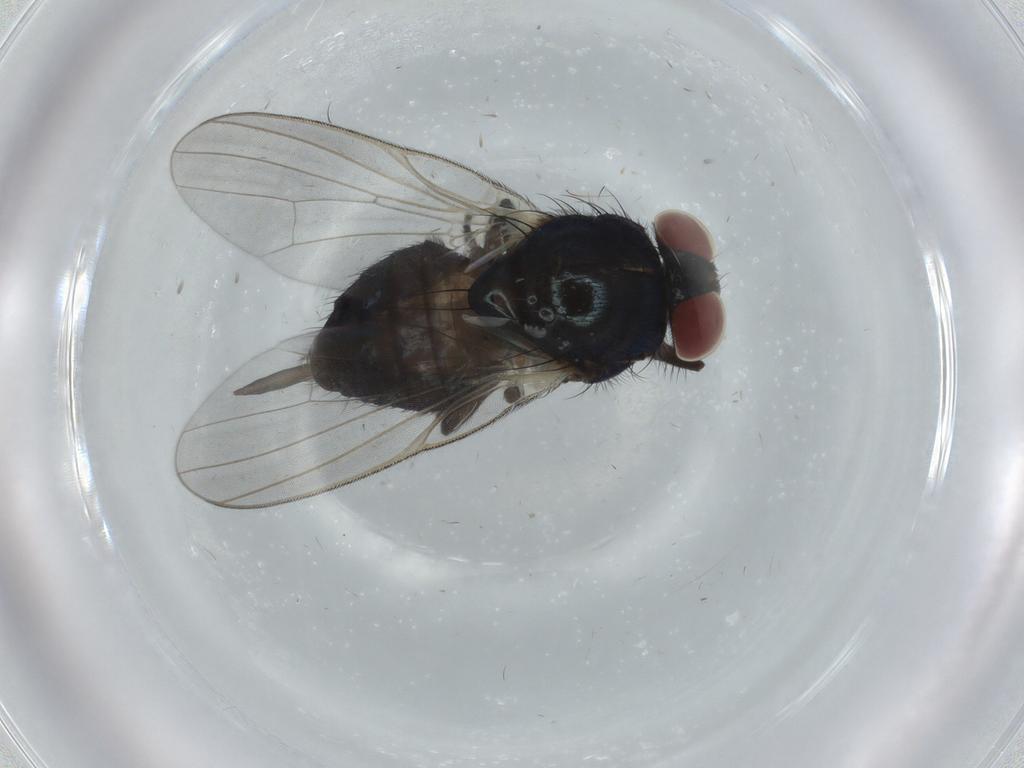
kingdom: Animalia
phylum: Arthropoda
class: Insecta
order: Diptera
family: Lonchaeidae
